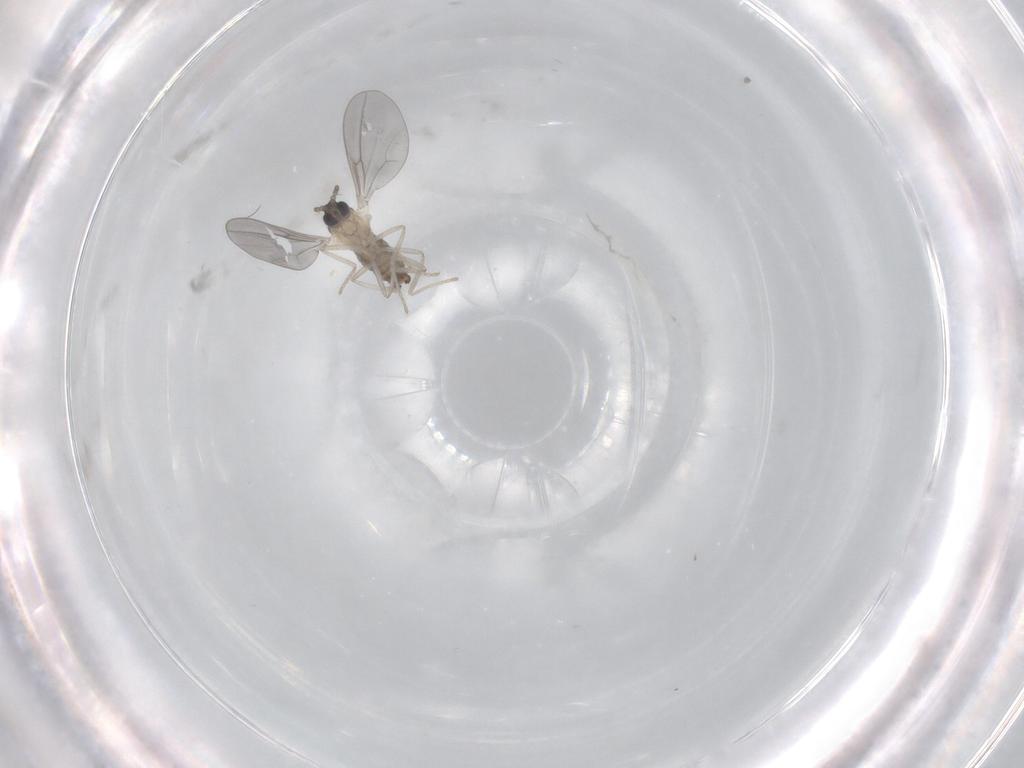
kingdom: Animalia
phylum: Arthropoda
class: Insecta
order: Diptera
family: Cecidomyiidae
